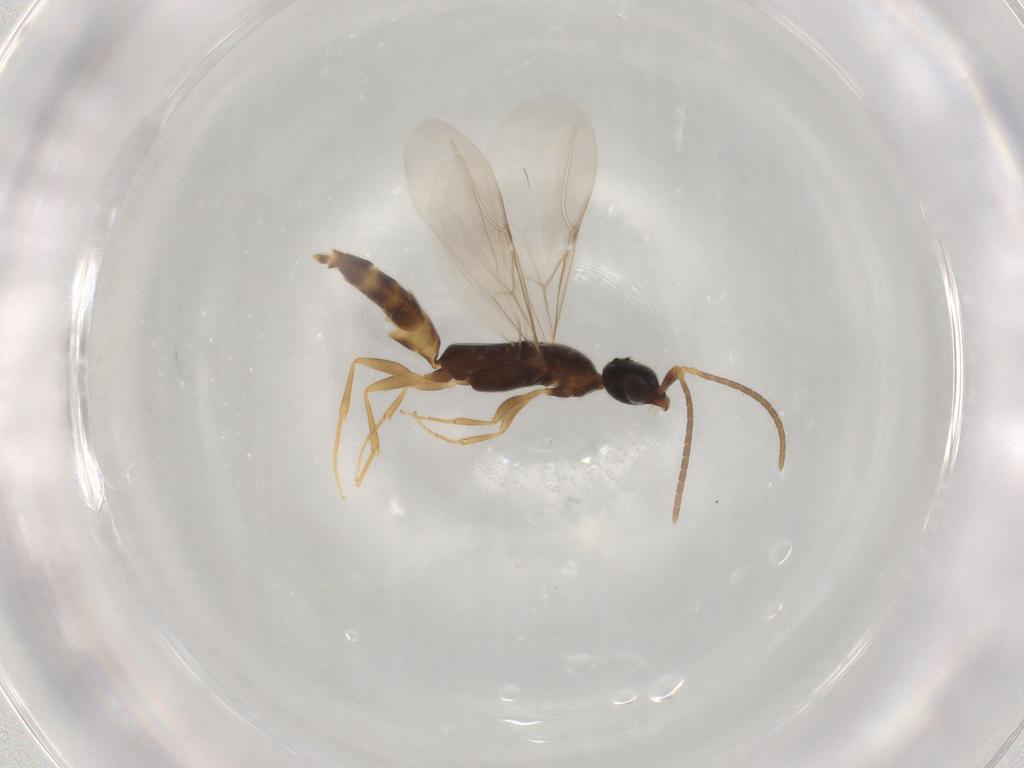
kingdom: Animalia
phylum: Arthropoda
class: Insecta
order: Hymenoptera
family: Bethylidae
